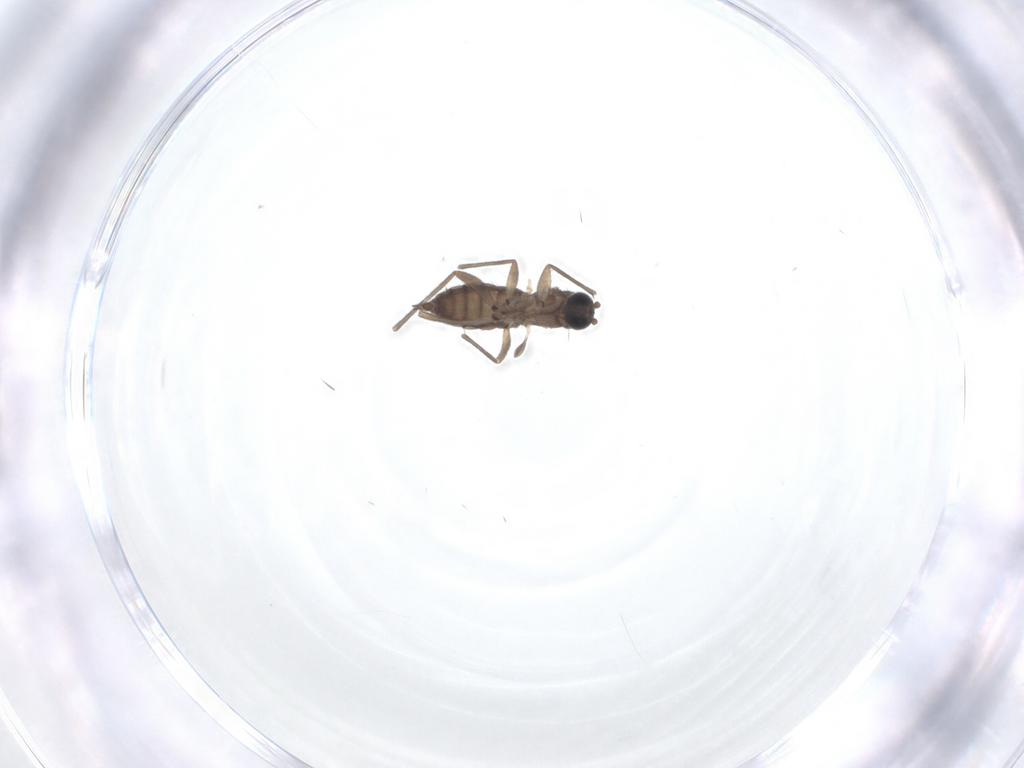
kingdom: Animalia
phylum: Arthropoda
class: Insecta
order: Diptera
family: Sciaridae
